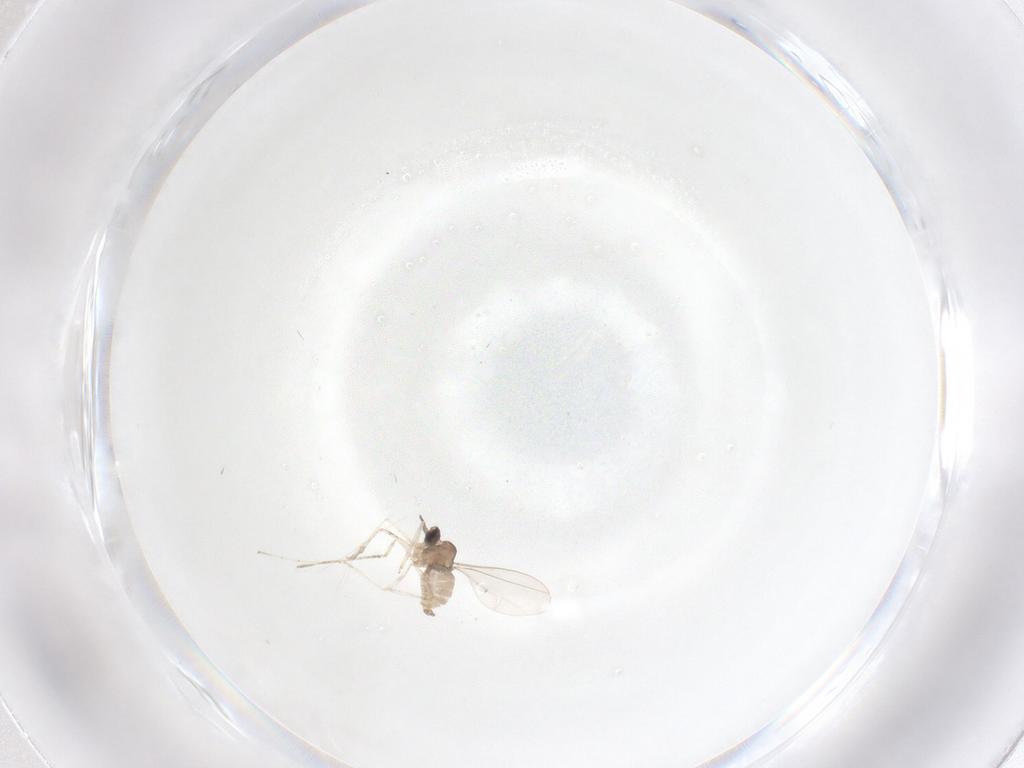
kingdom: Animalia
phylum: Arthropoda
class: Insecta
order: Diptera
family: Cecidomyiidae
